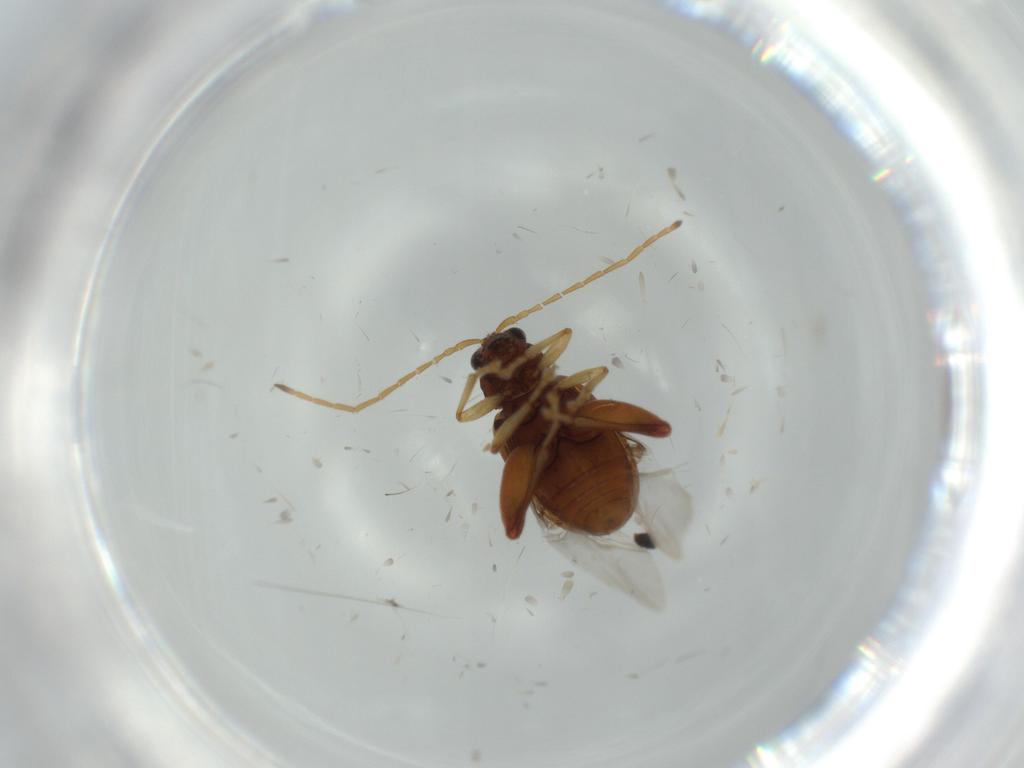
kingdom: Animalia
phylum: Arthropoda
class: Insecta
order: Coleoptera
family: Chrysomelidae
